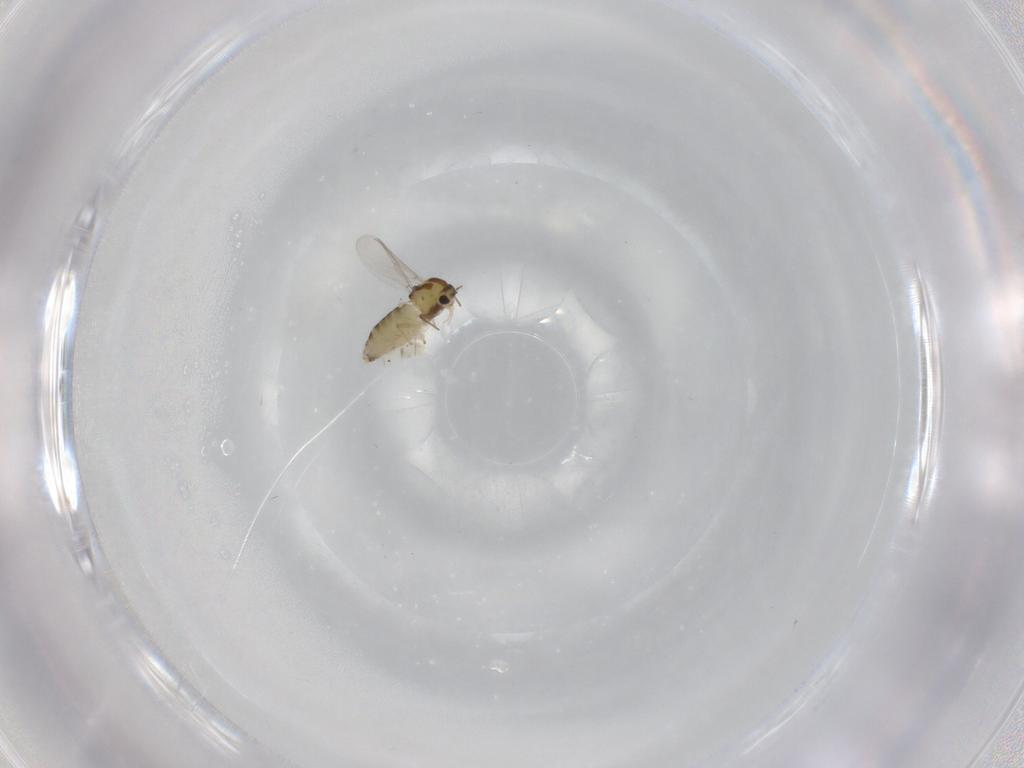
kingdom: Animalia
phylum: Arthropoda
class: Insecta
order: Diptera
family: Chironomidae
